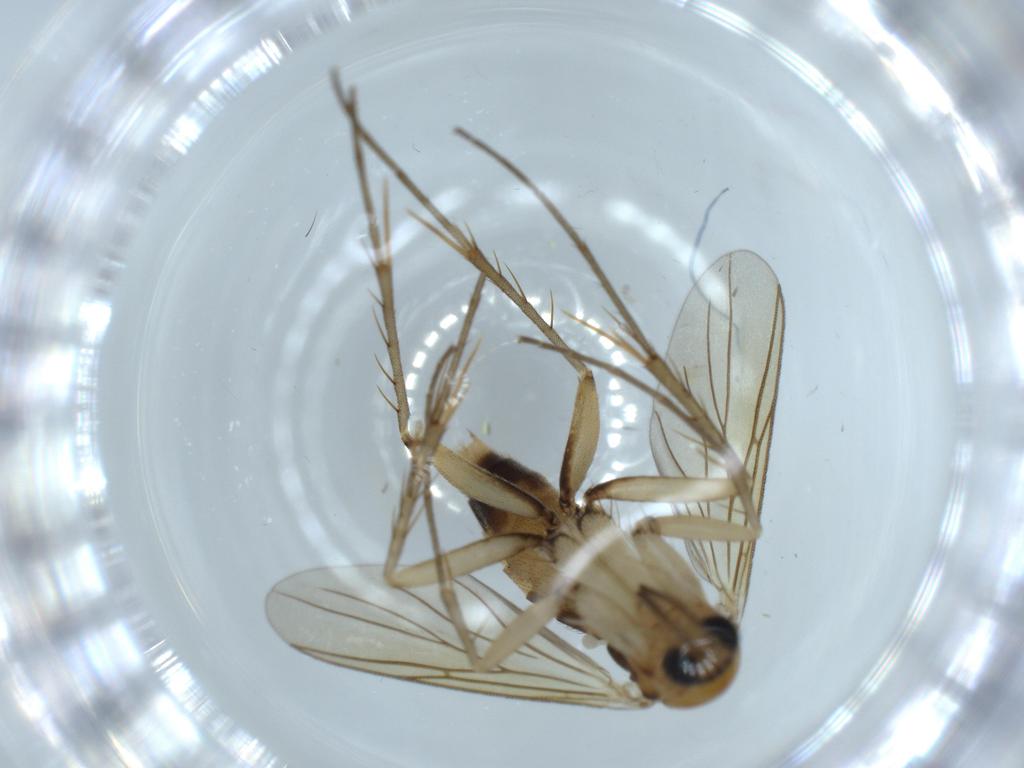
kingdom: Animalia
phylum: Arthropoda
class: Insecta
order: Diptera
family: Mycetophilidae
